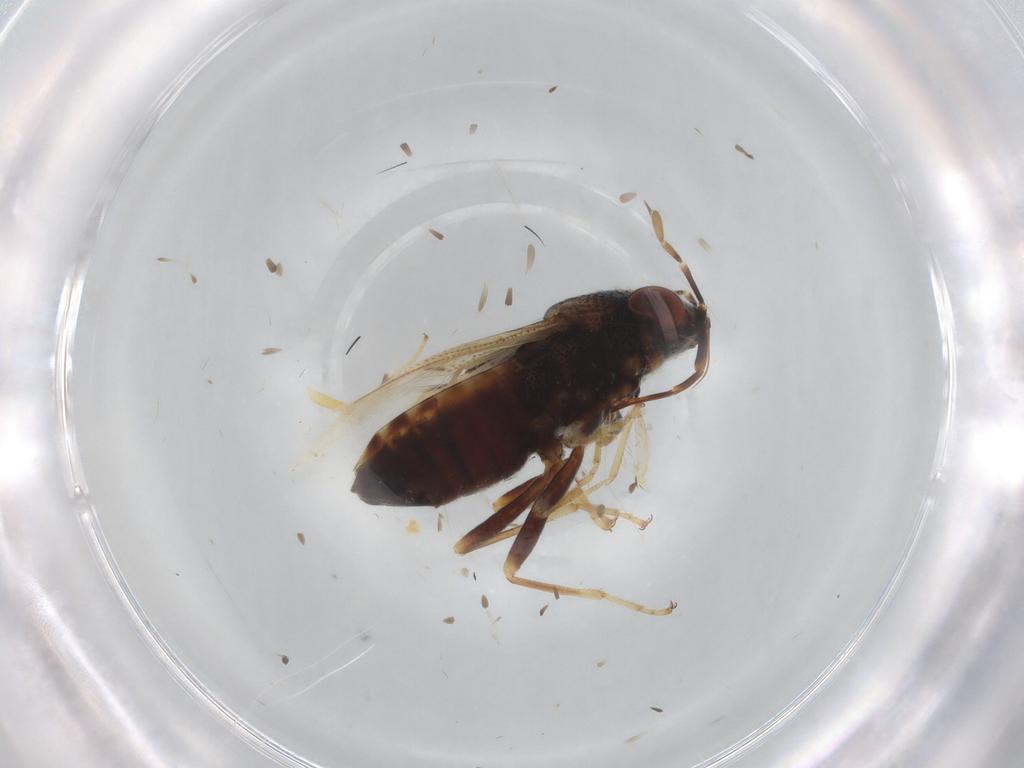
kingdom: Animalia
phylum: Arthropoda
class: Insecta
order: Hemiptera
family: Geocoridae
